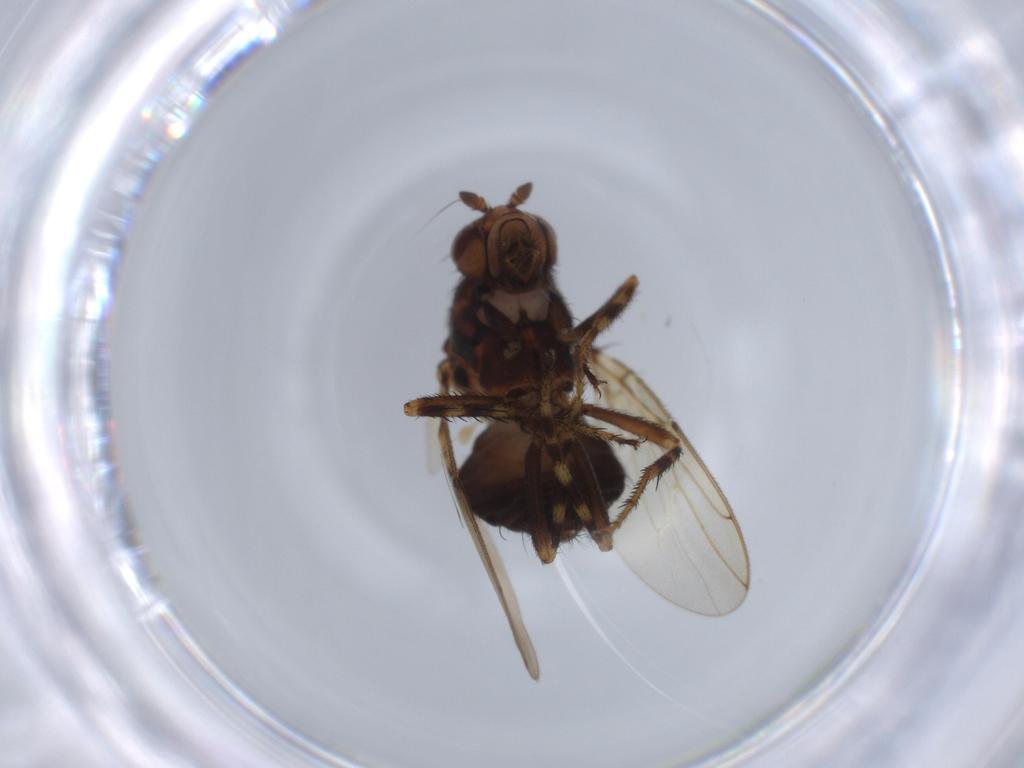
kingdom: Animalia
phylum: Arthropoda
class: Insecta
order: Diptera
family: Sphaeroceridae
